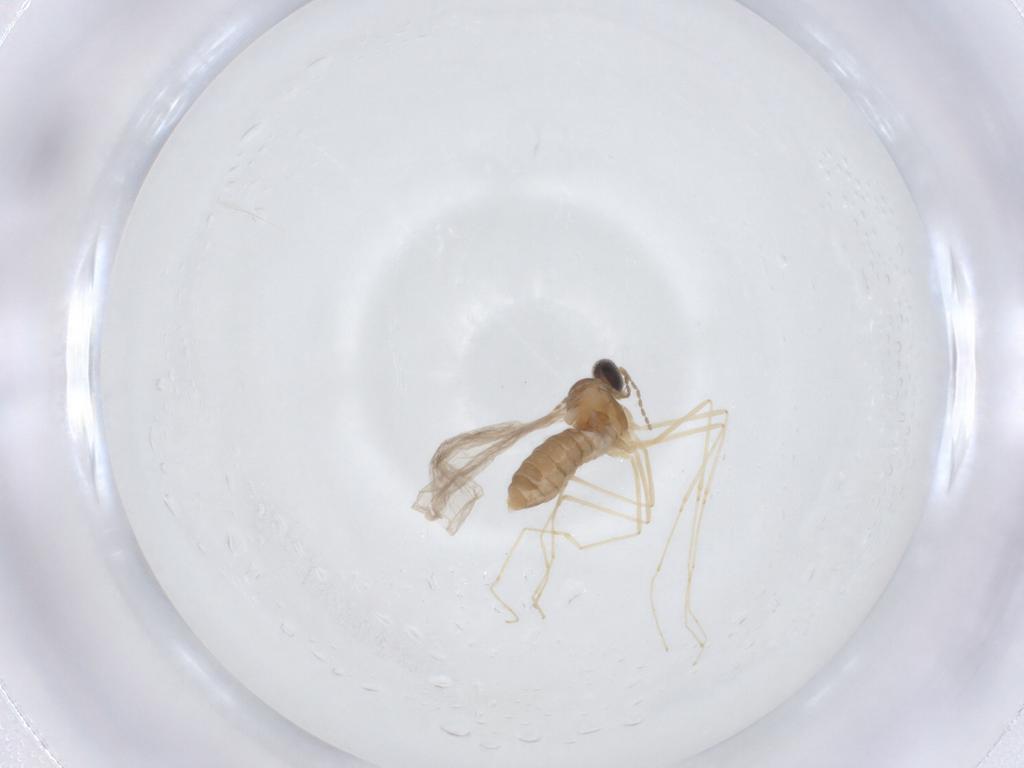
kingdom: Animalia
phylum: Arthropoda
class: Insecta
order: Diptera
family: Cecidomyiidae
